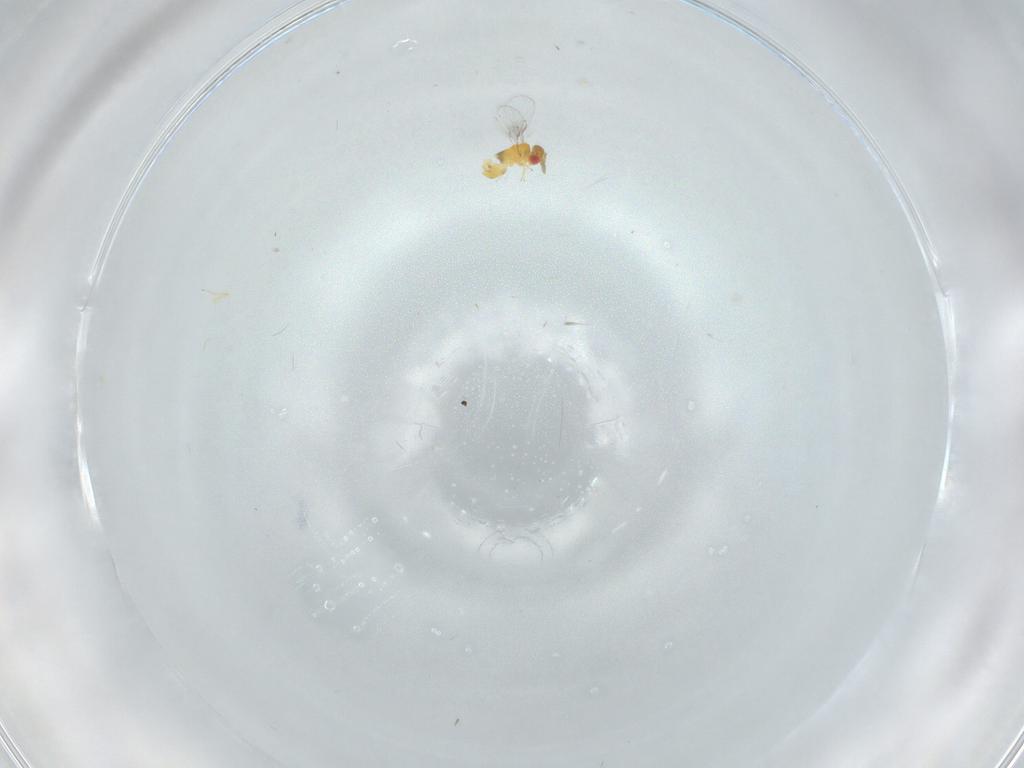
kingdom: Animalia
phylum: Arthropoda
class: Insecta
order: Hymenoptera
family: Trichogrammatidae
